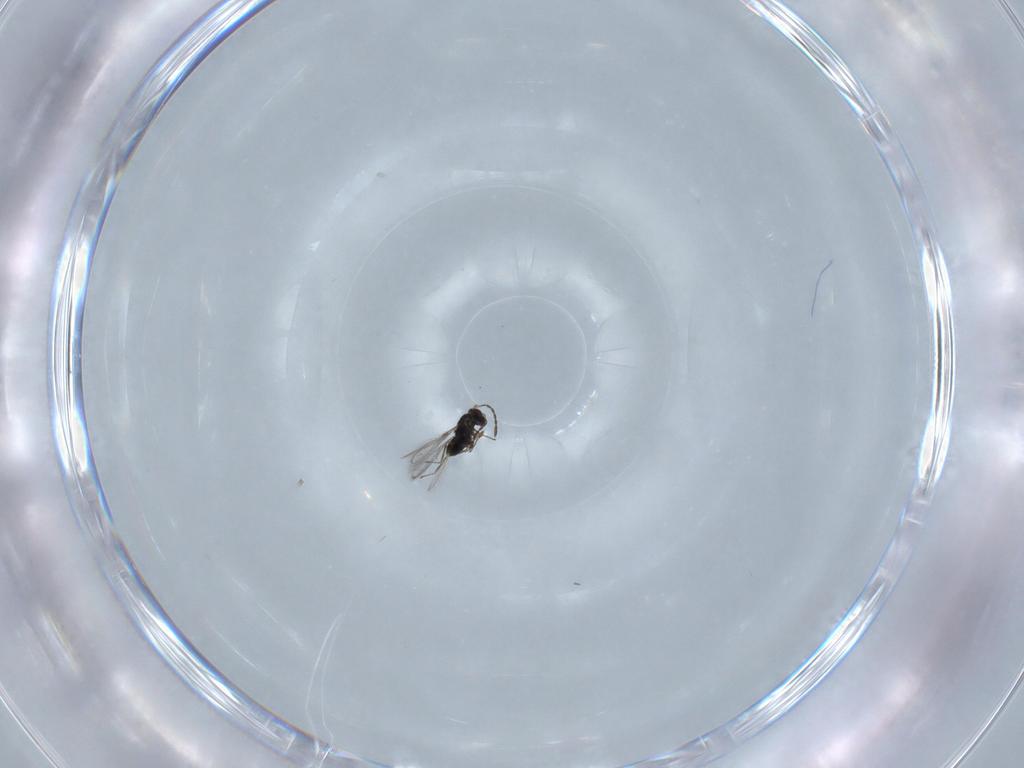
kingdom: Animalia
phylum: Arthropoda
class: Insecta
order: Hymenoptera
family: Mymaridae
